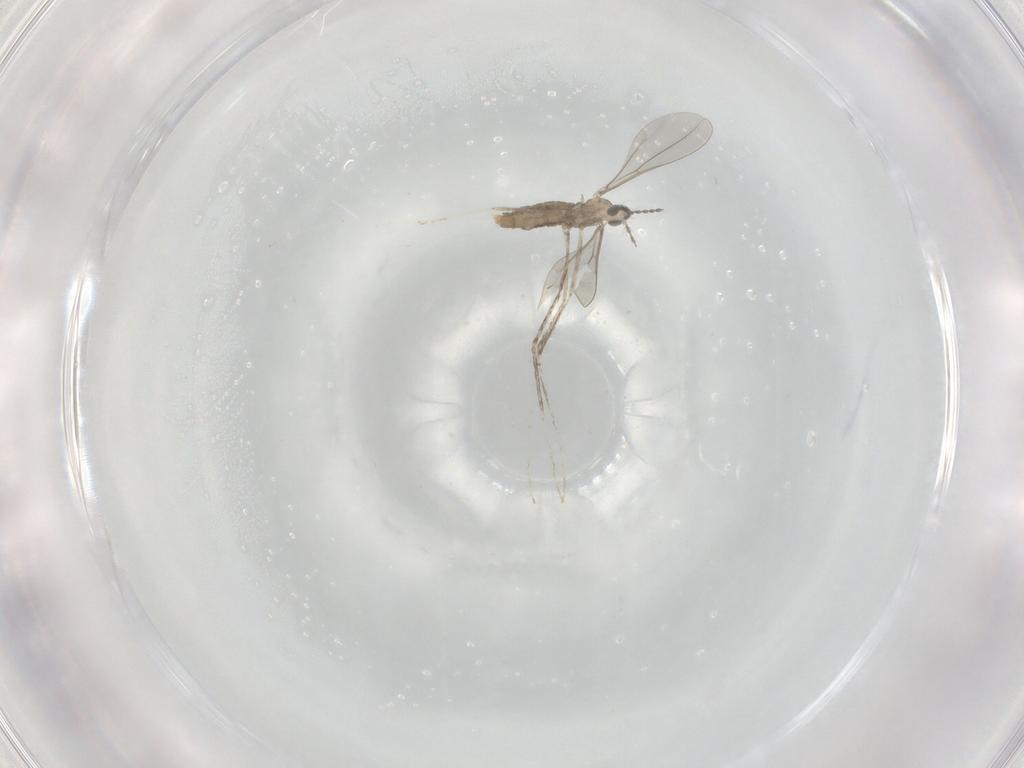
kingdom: Animalia
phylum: Arthropoda
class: Insecta
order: Diptera
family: Cecidomyiidae
